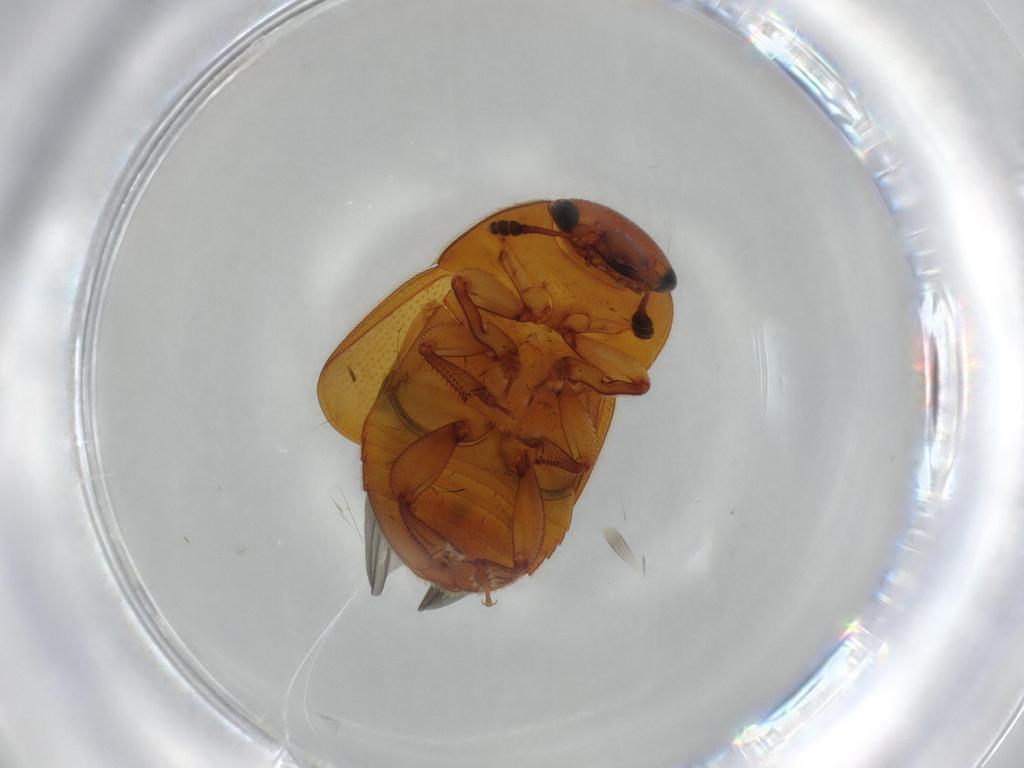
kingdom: Animalia
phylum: Arthropoda
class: Insecta
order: Coleoptera
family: Nitidulidae
